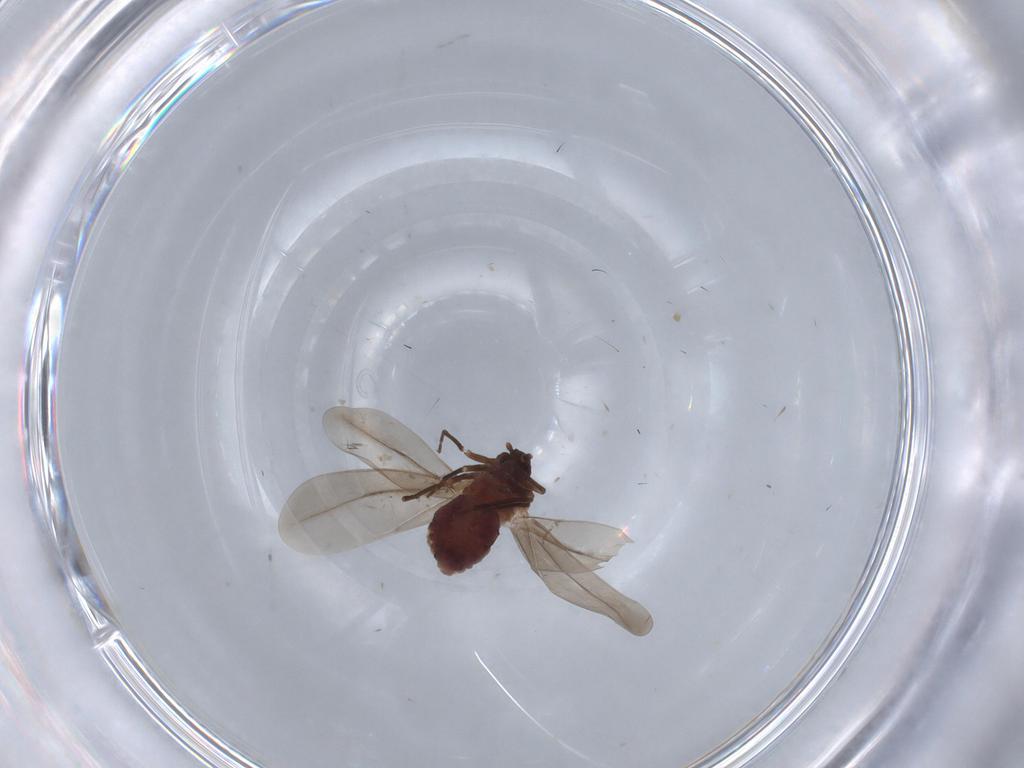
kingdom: Animalia
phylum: Arthropoda
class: Insecta
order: Hemiptera
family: Aleyrodidae
